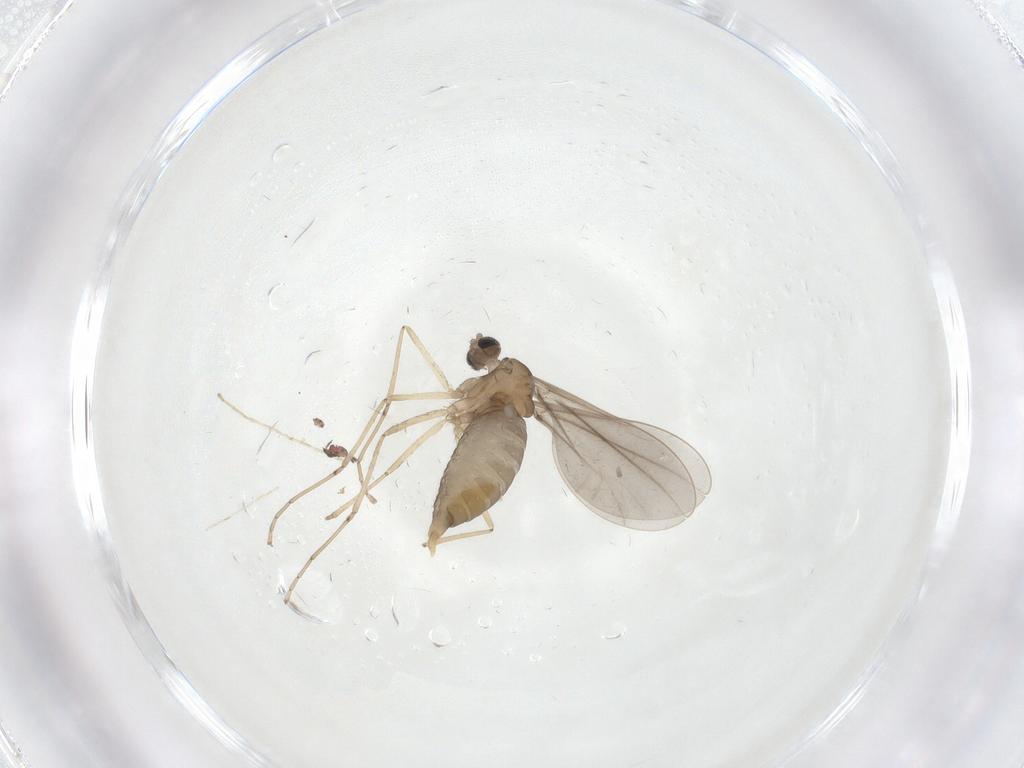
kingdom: Animalia
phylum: Arthropoda
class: Insecta
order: Diptera
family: Cecidomyiidae
